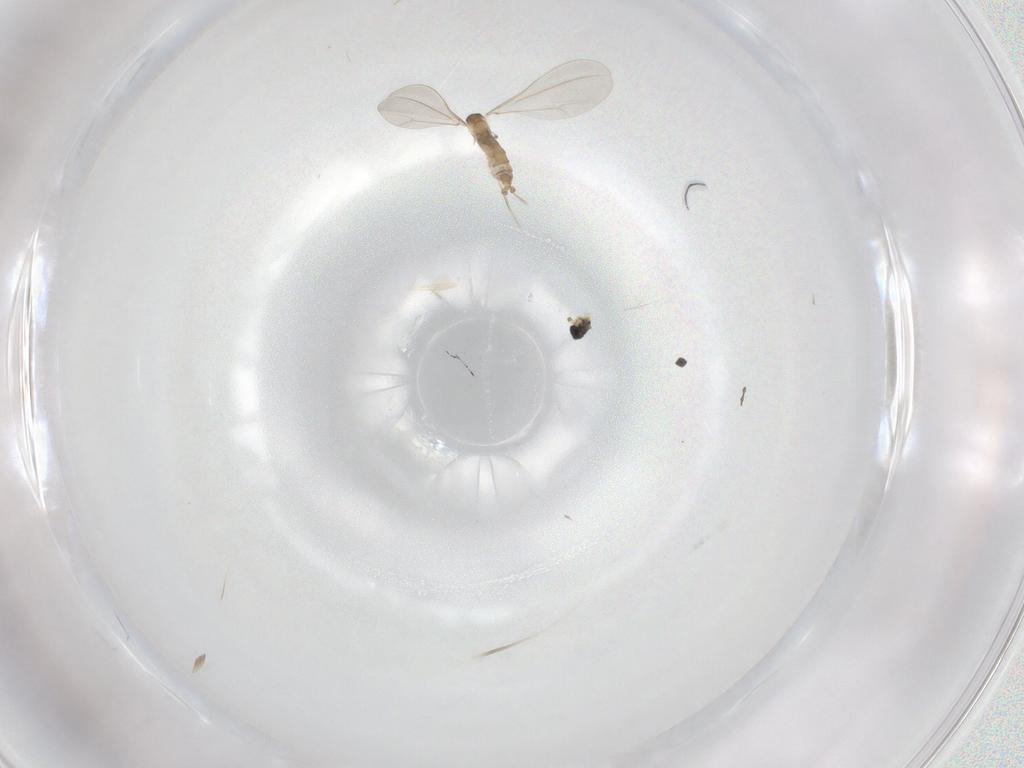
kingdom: Animalia
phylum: Arthropoda
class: Insecta
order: Diptera
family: Cecidomyiidae
